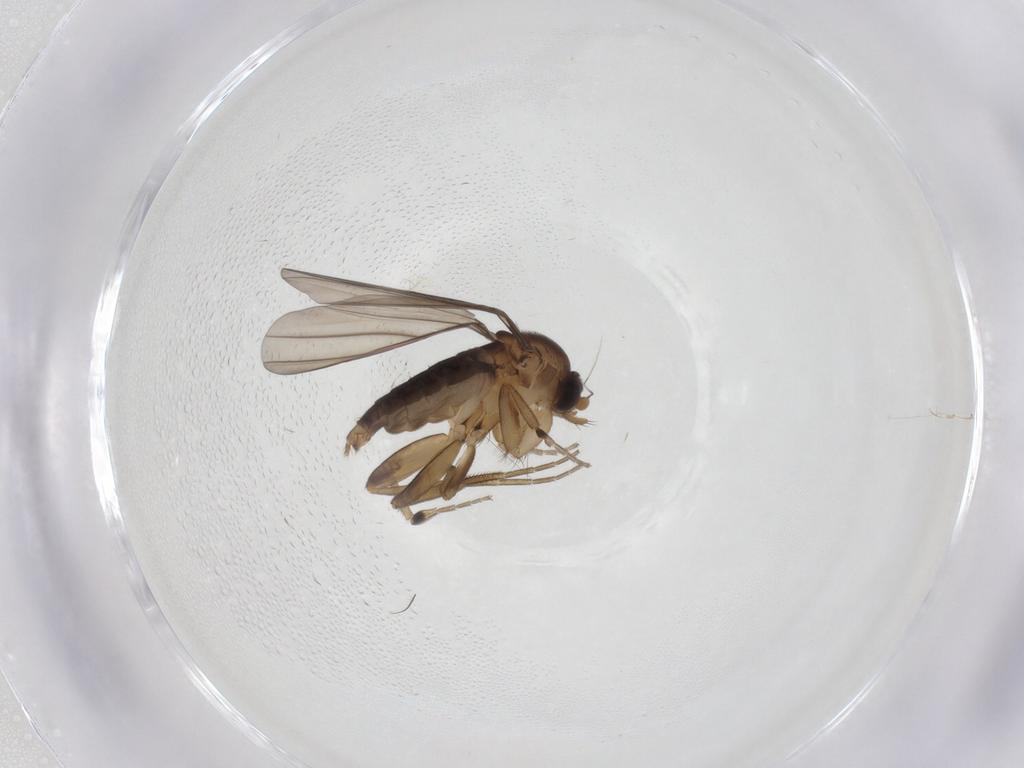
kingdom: Animalia
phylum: Arthropoda
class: Insecta
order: Diptera
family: Phoridae
